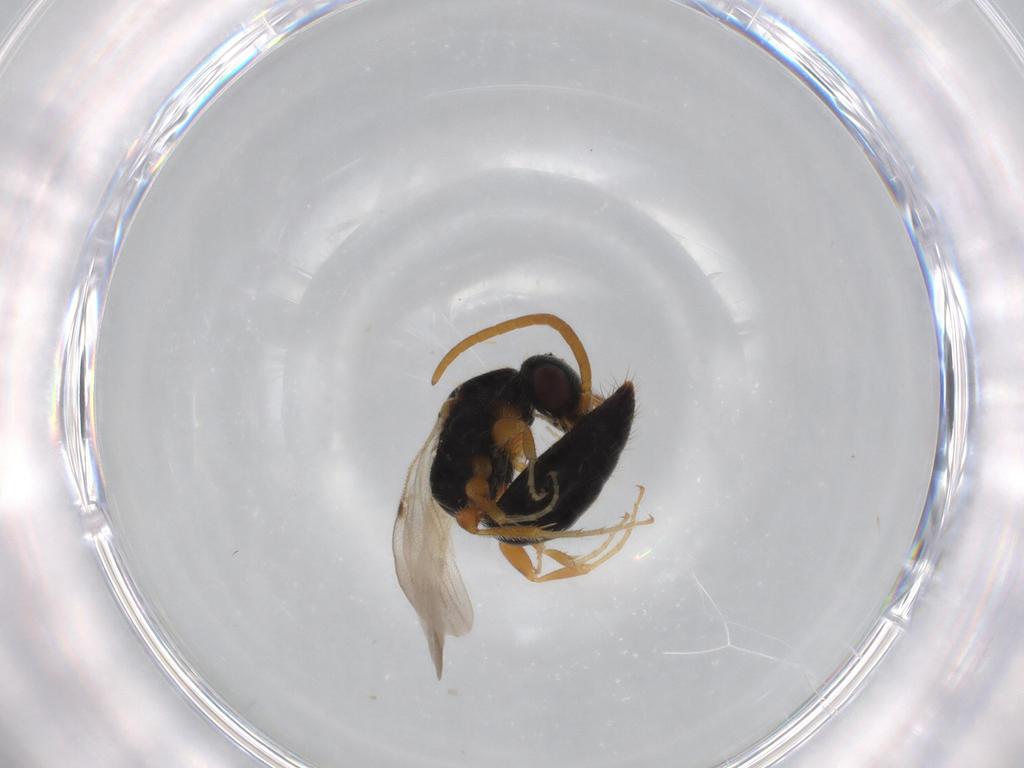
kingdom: Animalia
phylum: Arthropoda
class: Insecta
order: Hymenoptera
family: Bethylidae
